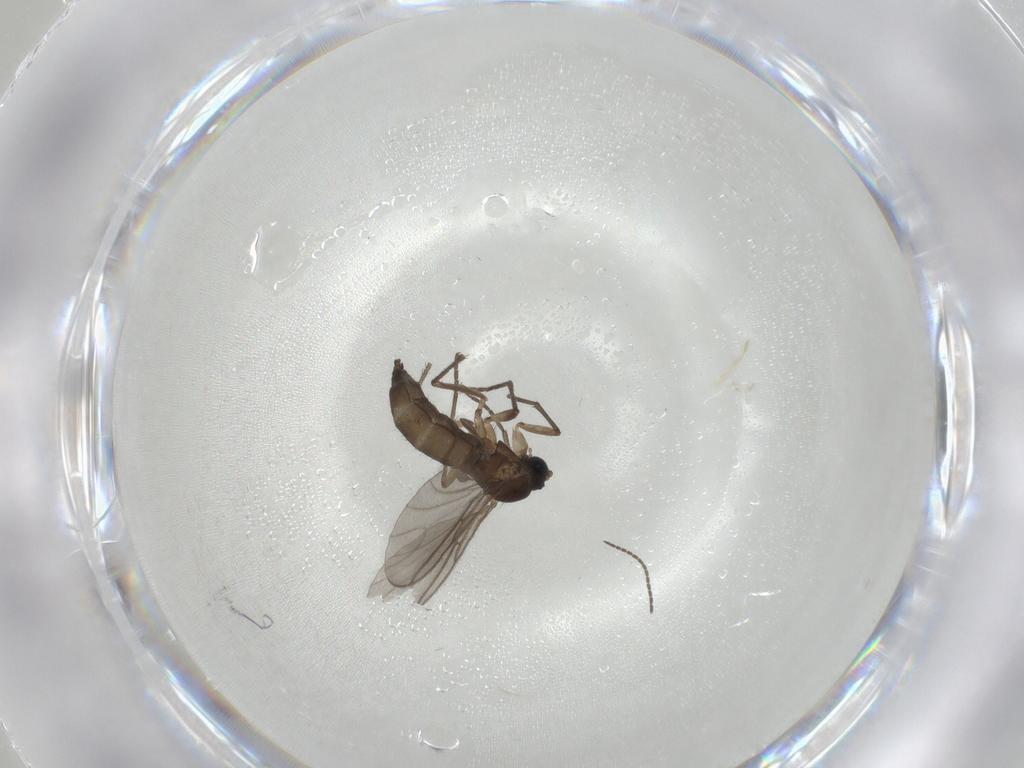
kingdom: Animalia
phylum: Arthropoda
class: Insecta
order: Diptera
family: Sciaridae
